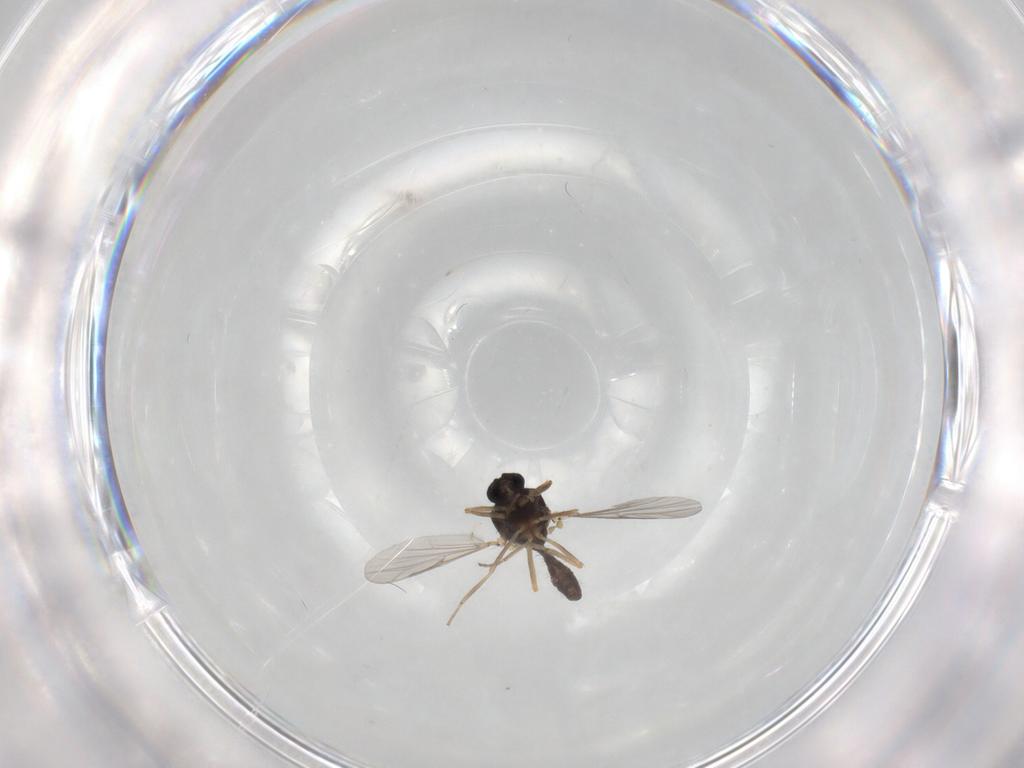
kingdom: Animalia
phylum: Arthropoda
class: Insecta
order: Diptera
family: Ceratopogonidae
